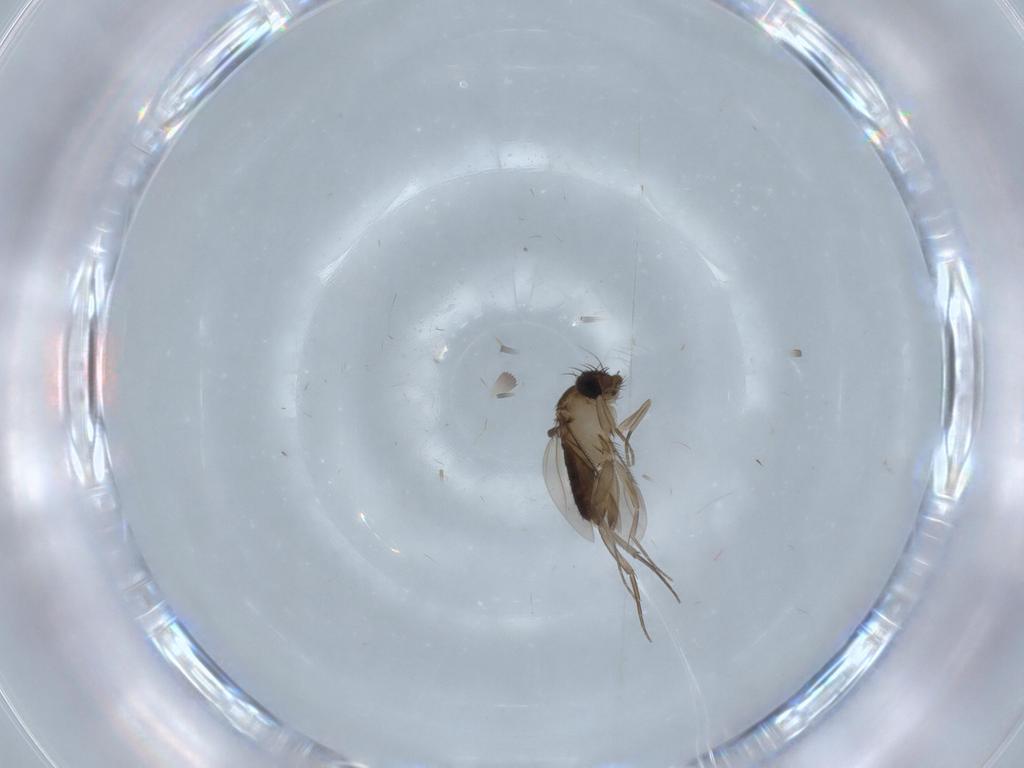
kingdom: Animalia
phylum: Arthropoda
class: Insecta
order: Diptera
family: Phoridae
